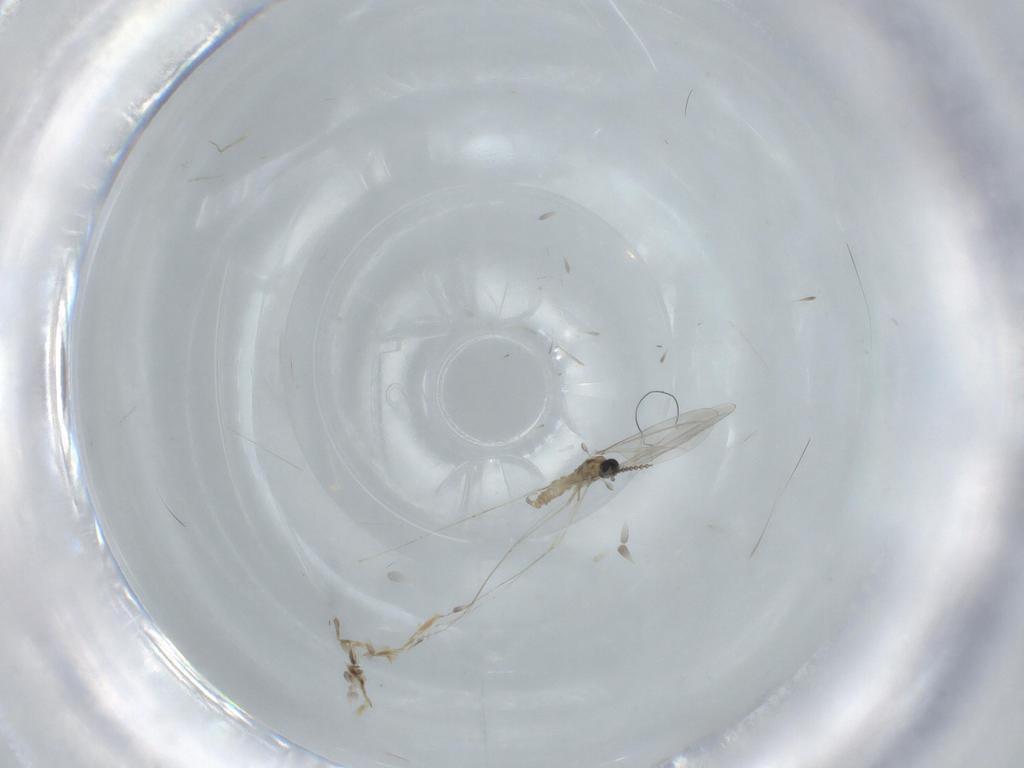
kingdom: Animalia
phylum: Arthropoda
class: Insecta
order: Diptera
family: Cecidomyiidae
